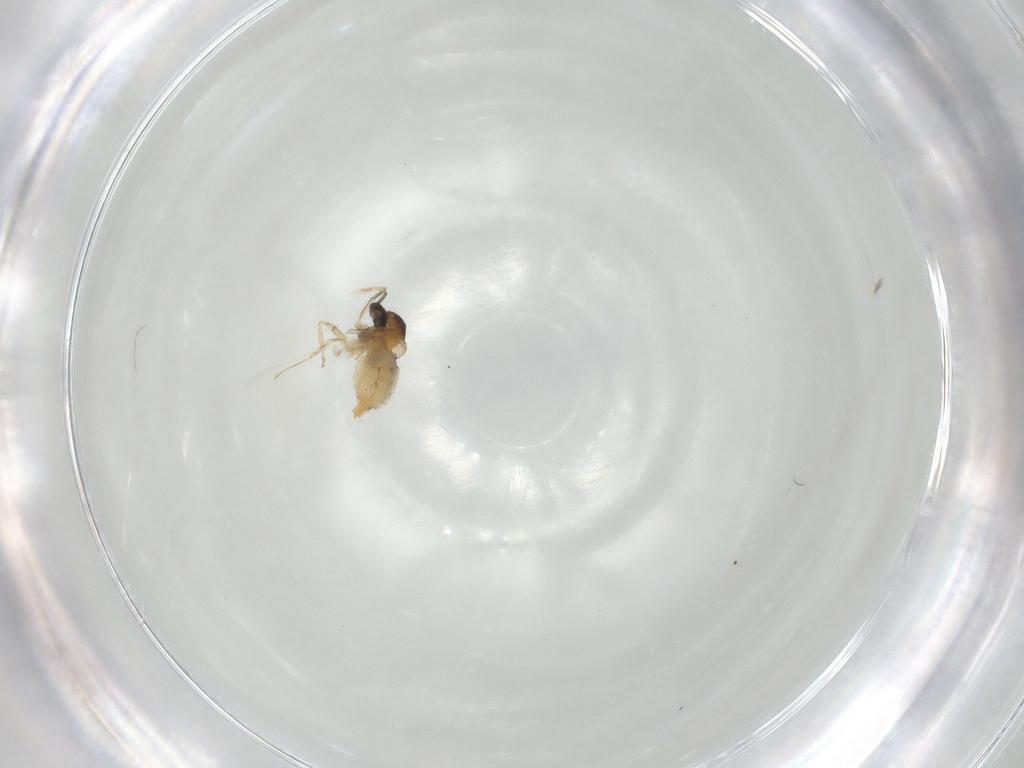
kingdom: Animalia
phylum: Arthropoda
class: Insecta
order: Diptera
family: Cecidomyiidae
